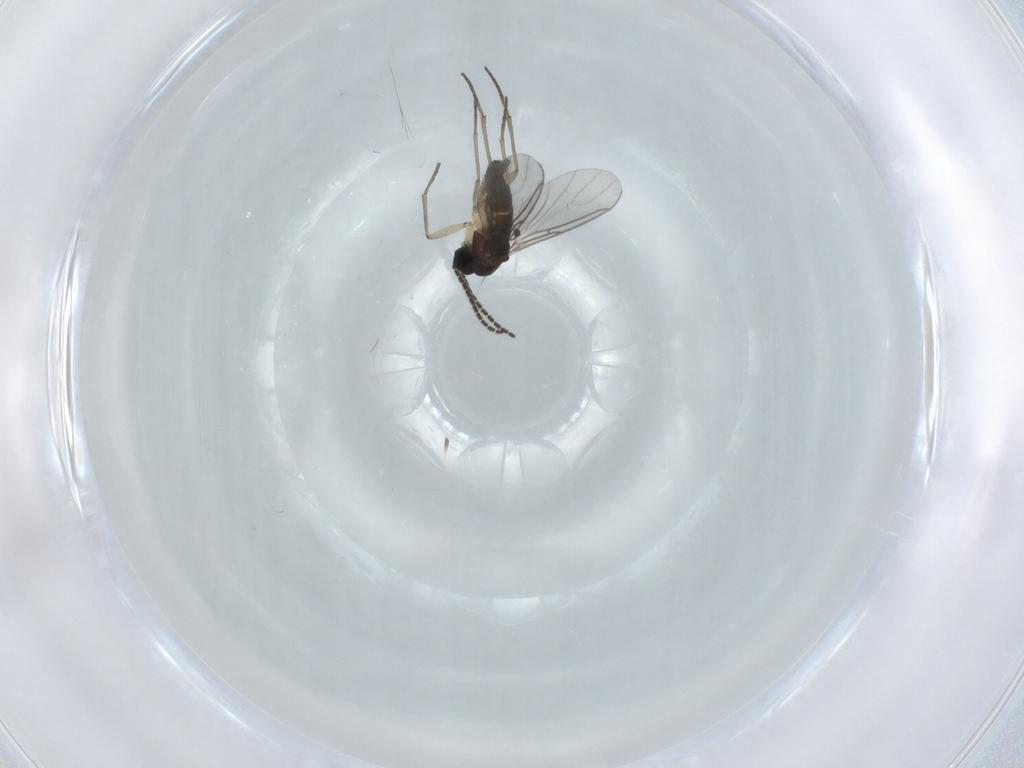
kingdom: Animalia
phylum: Arthropoda
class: Insecta
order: Diptera
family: Sciaridae
